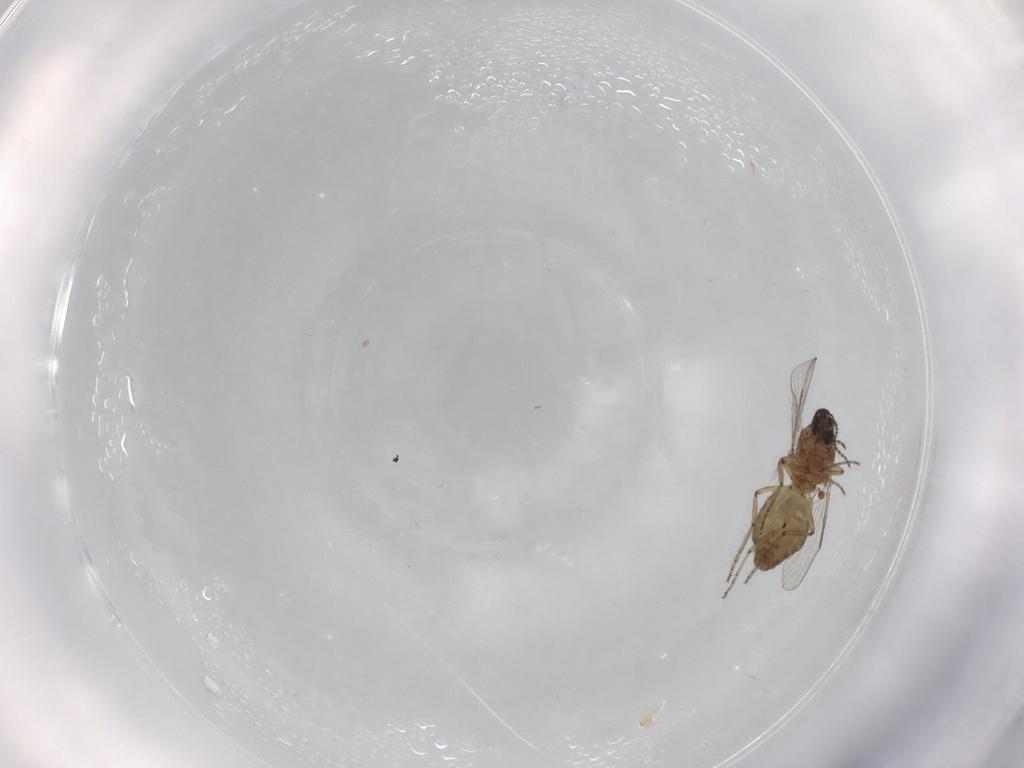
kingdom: Animalia
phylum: Arthropoda
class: Insecta
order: Diptera
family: Ceratopogonidae
